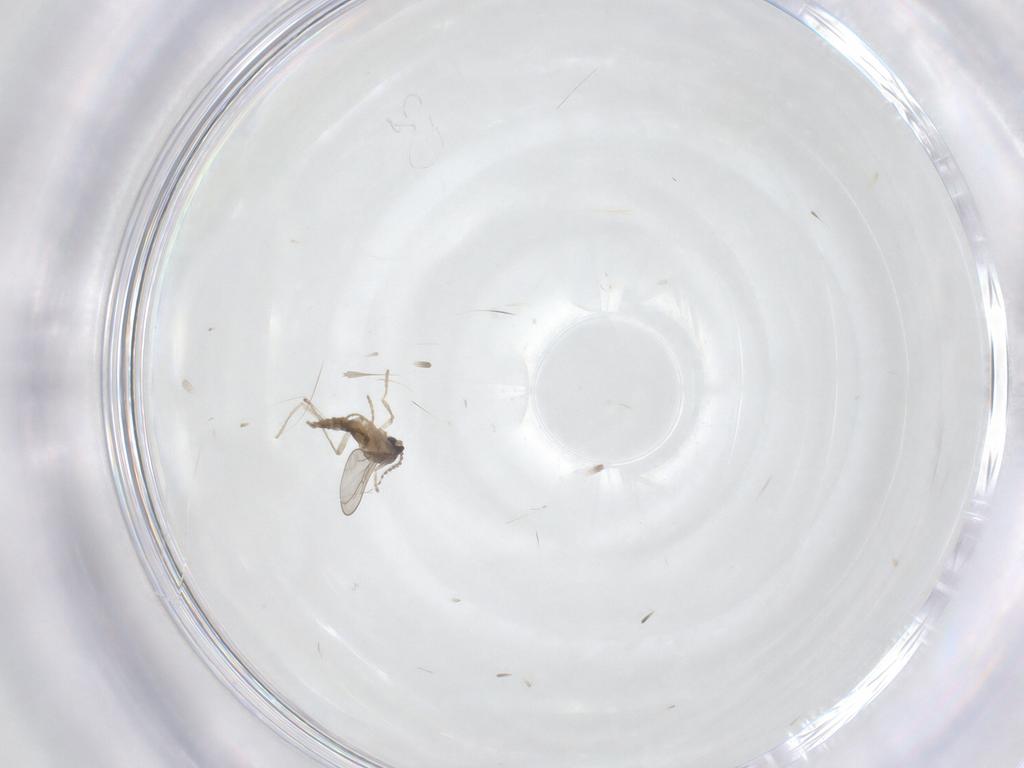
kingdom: Animalia
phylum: Arthropoda
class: Insecta
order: Diptera
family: Cecidomyiidae
